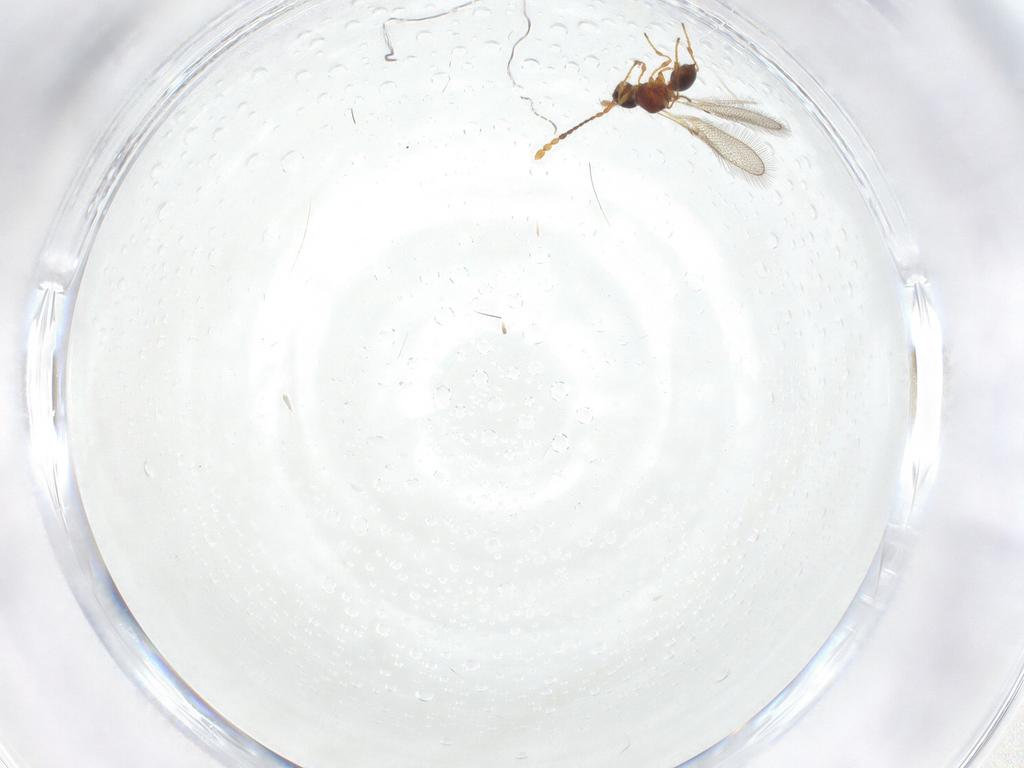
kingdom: Animalia
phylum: Arthropoda
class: Insecta
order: Hymenoptera
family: Diapriidae
